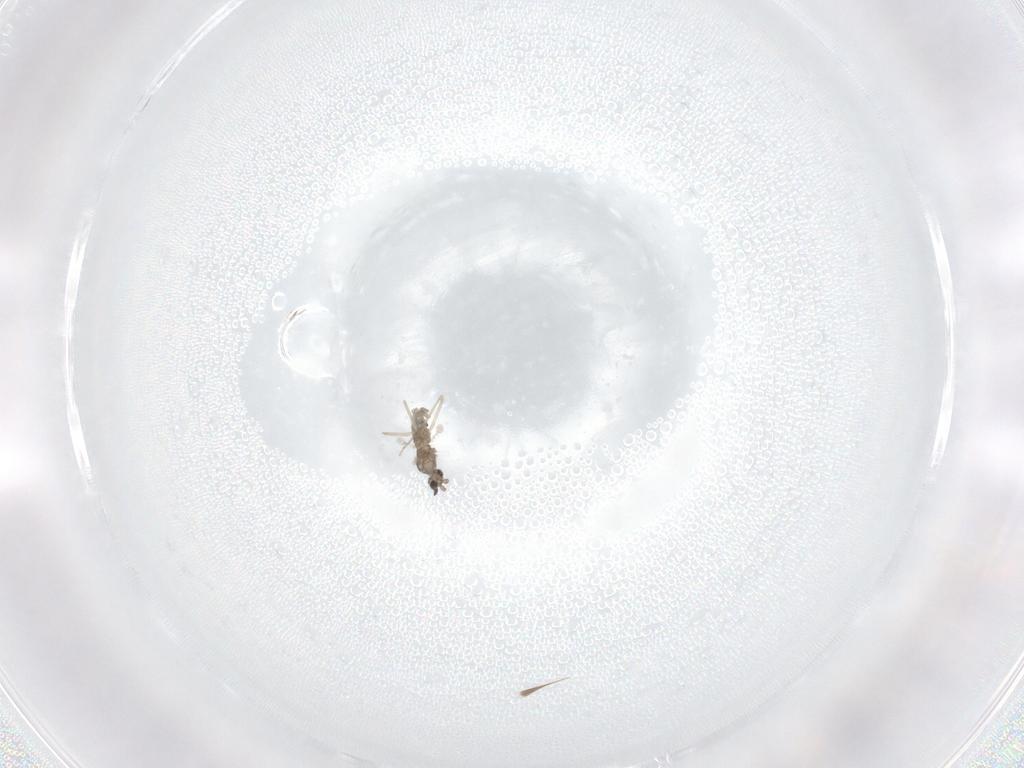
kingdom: Animalia
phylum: Arthropoda
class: Insecta
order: Diptera
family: Cecidomyiidae
